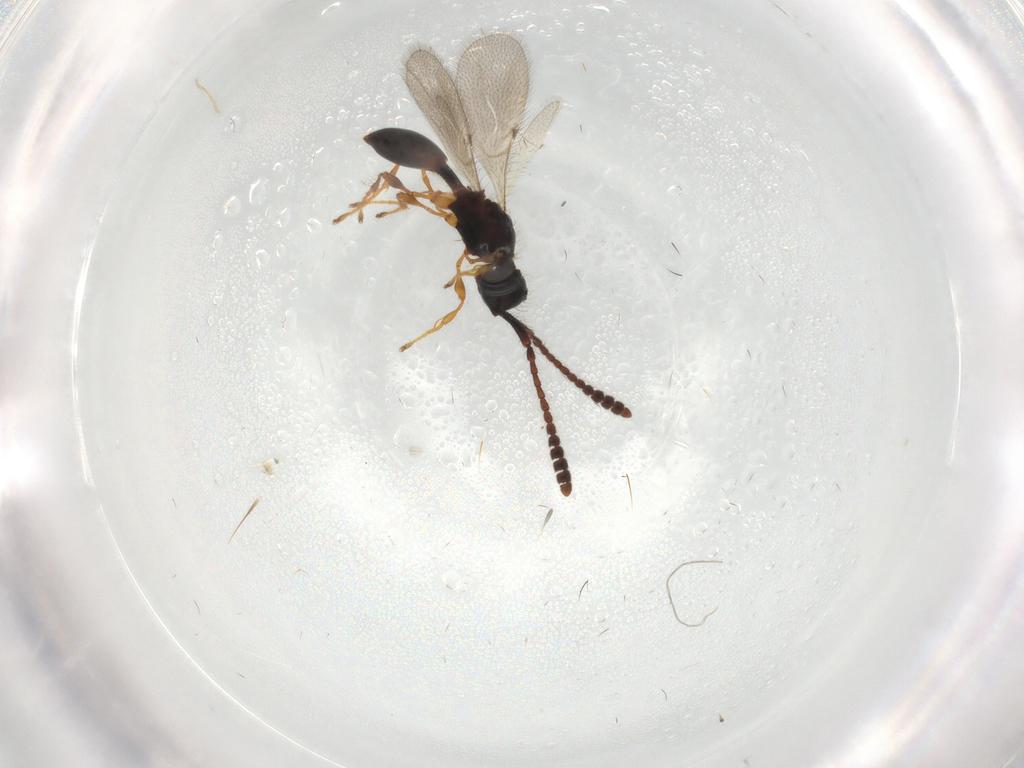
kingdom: Animalia
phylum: Arthropoda
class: Insecta
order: Hymenoptera
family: Diapriidae
